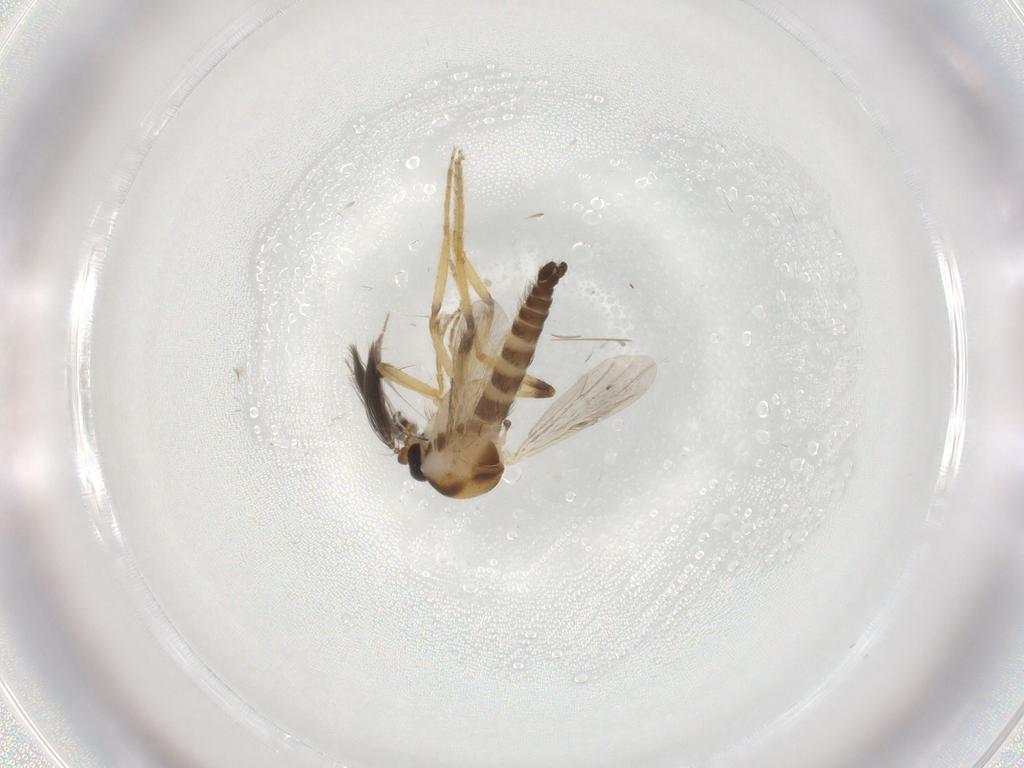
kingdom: Animalia
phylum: Arthropoda
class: Insecta
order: Diptera
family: Ceratopogonidae
